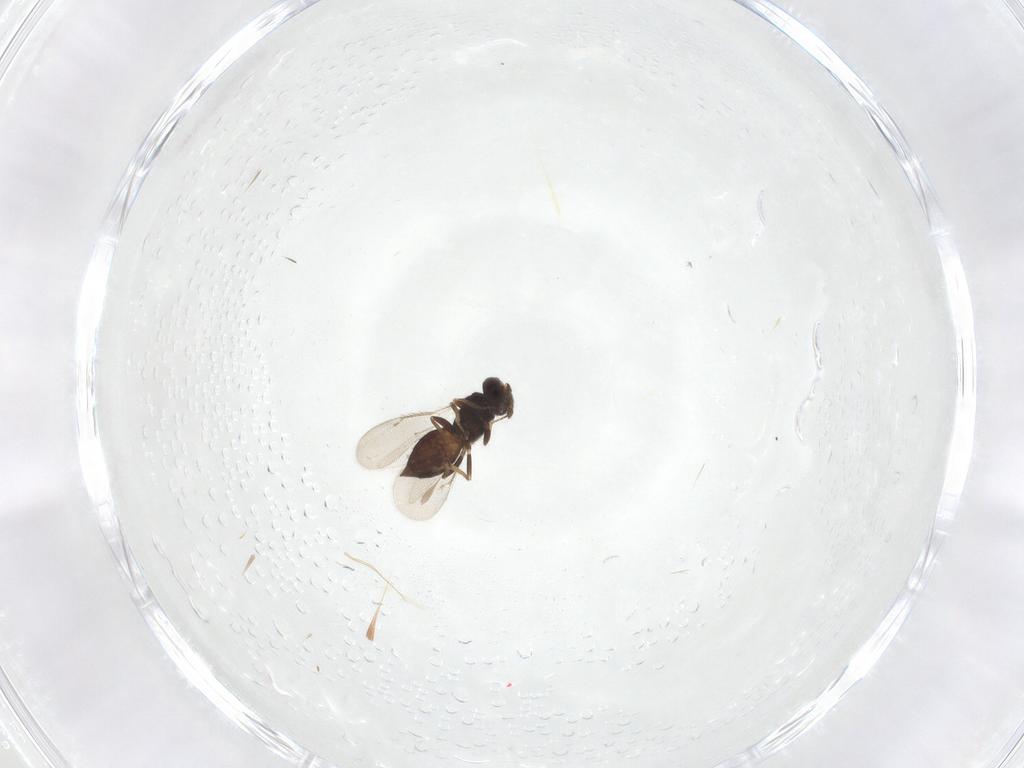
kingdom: Animalia
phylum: Arthropoda
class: Insecta
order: Hymenoptera
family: Eulophidae
